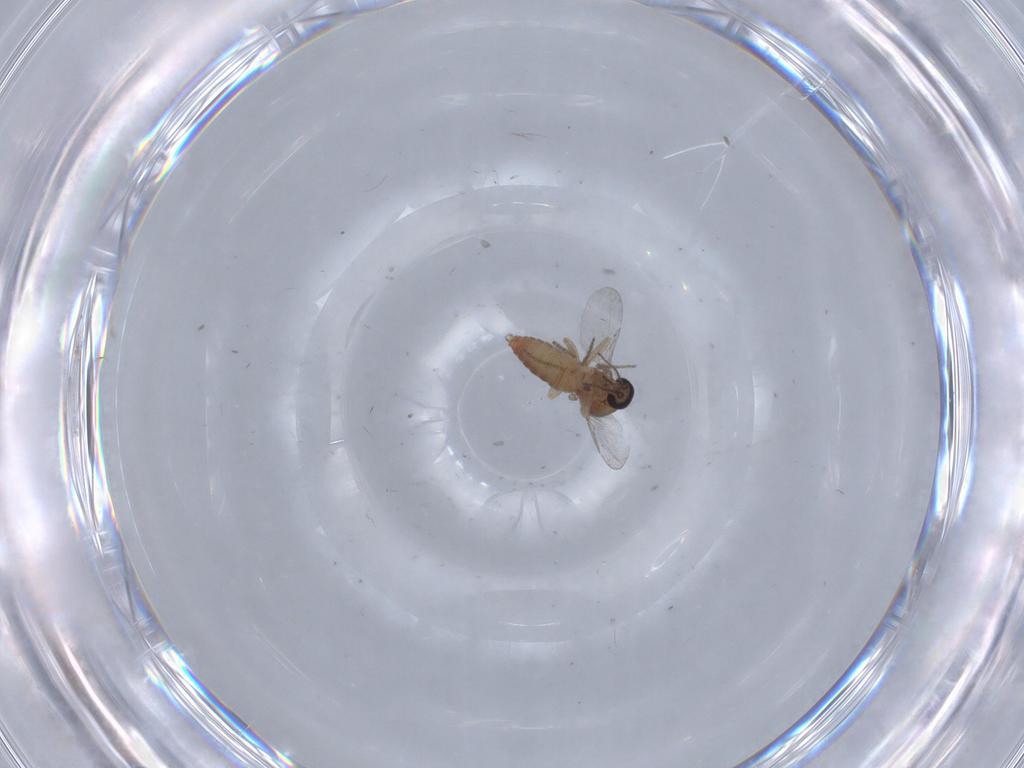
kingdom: Animalia
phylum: Arthropoda
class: Insecta
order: Diptera
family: Ceratopogonidae
